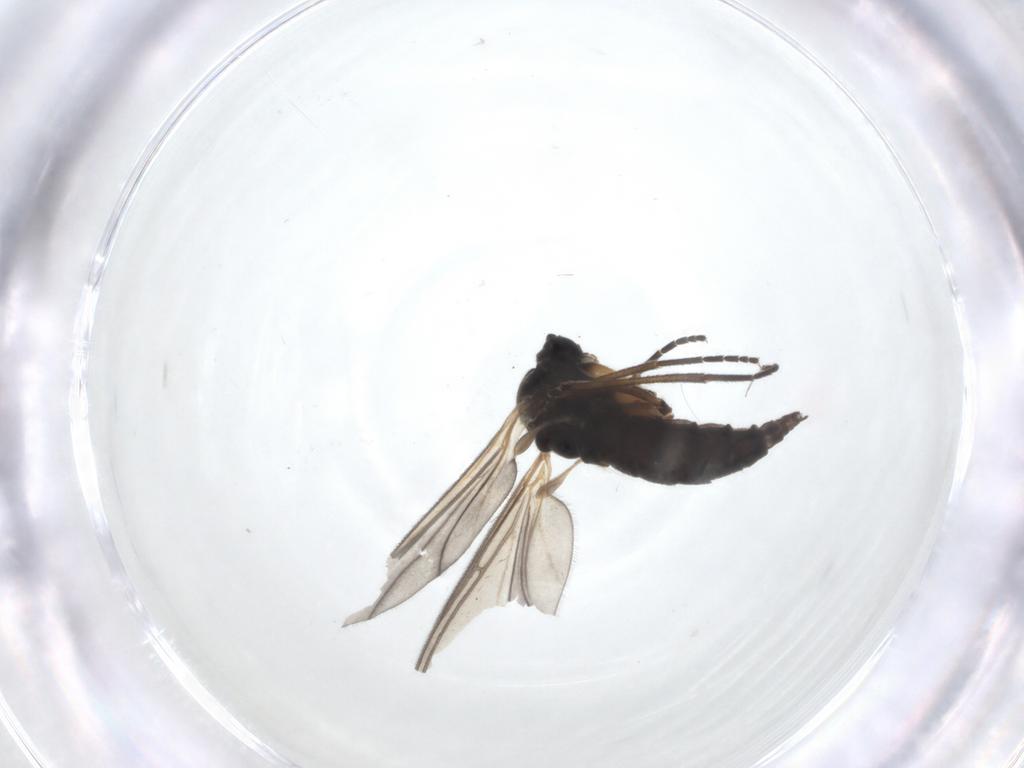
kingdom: Animalia
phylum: Arthropoda
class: Insecta
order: Diptera
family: Sciaridae
